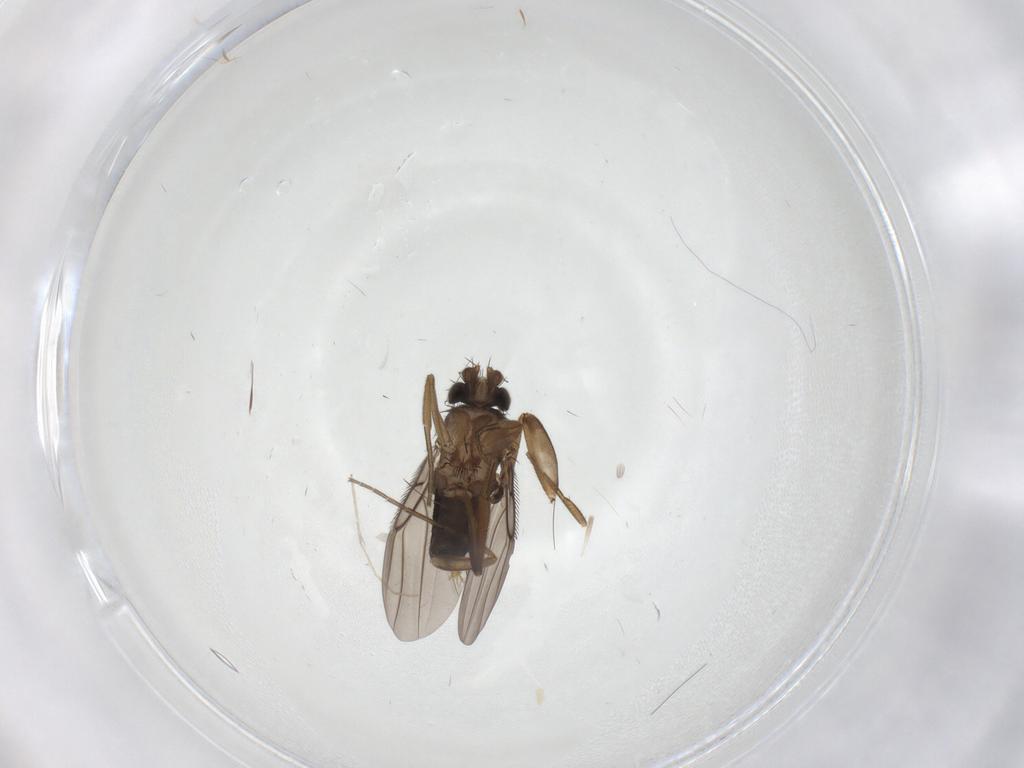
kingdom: Animalia
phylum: Arthropoda
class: Insecta
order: Diptera
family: Phoridae
